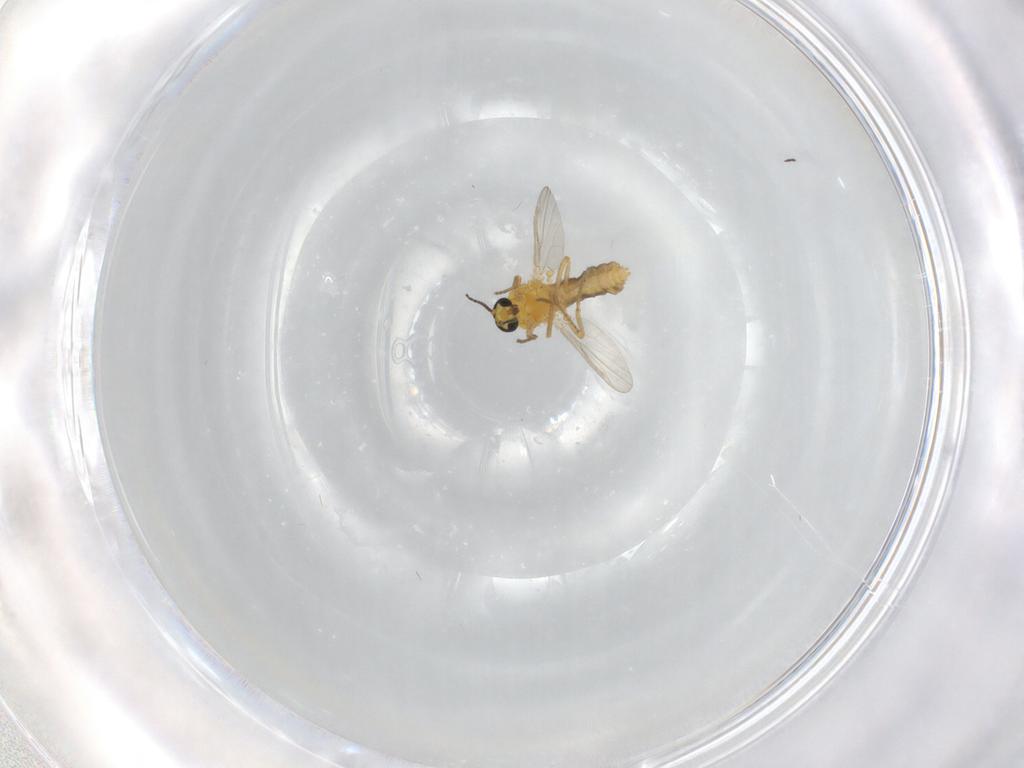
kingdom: Animalia
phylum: Arthropoda
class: Insecta
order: Diptera
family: Ceratopogonidae
